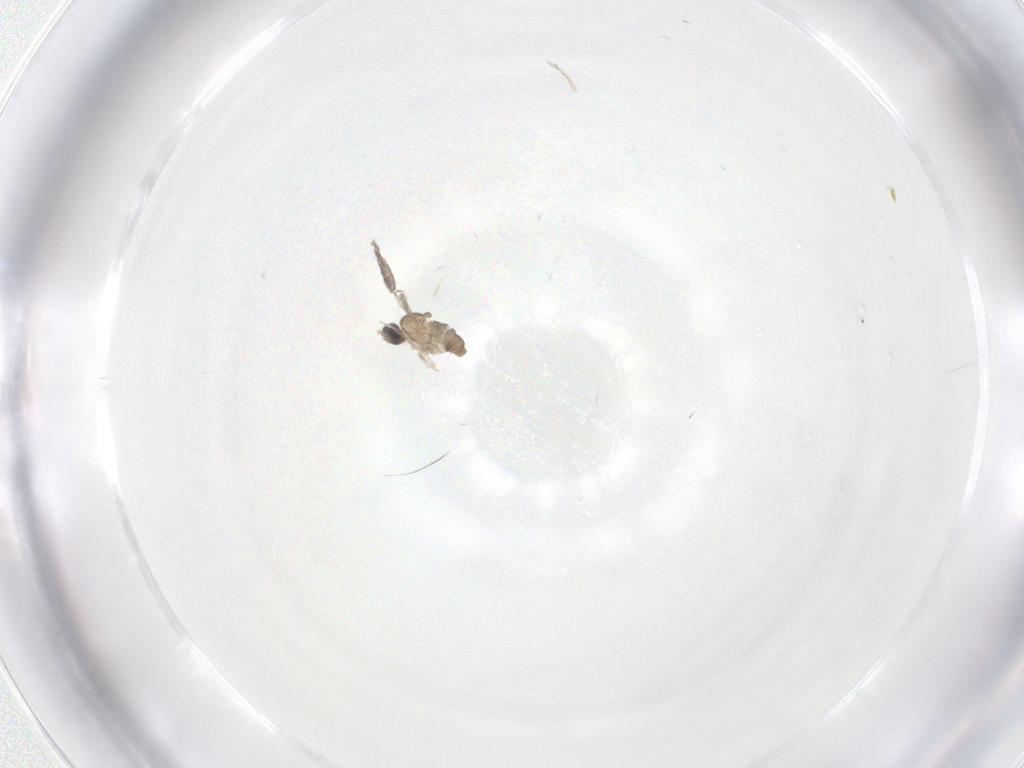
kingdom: Animalia
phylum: Arthropoda
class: Insecta
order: Diptera
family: Cecidomyiidae
